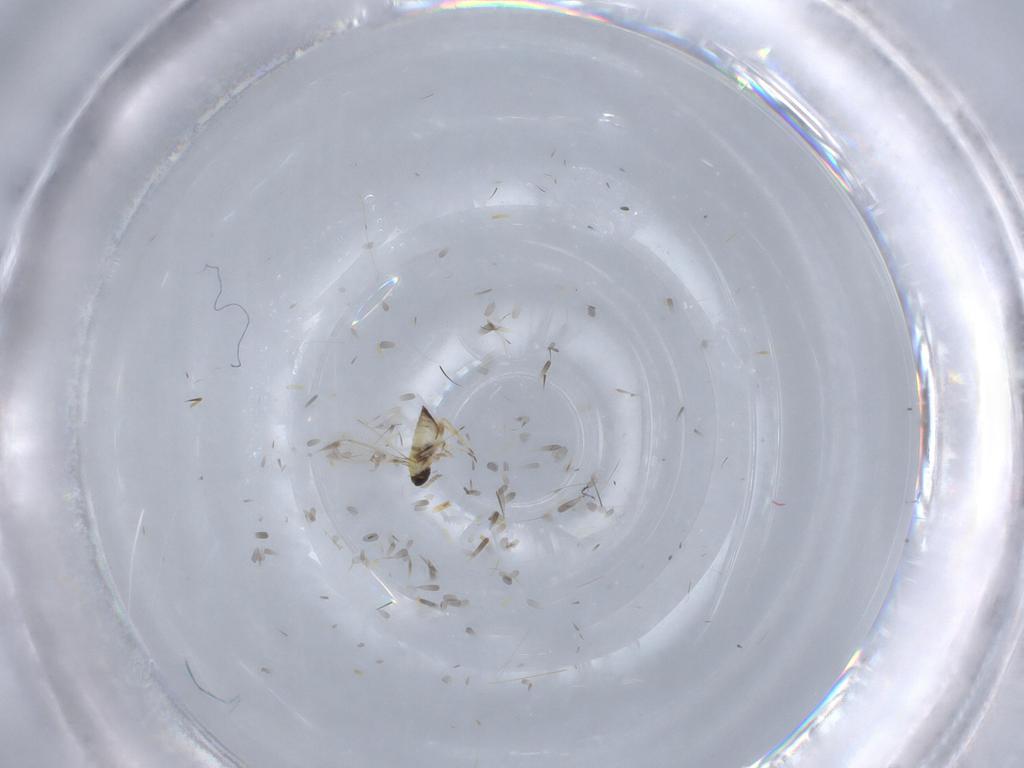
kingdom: Animalia
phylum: Arthropoda
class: Insecta
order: Hymenoptera
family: Trichogrammatidae
